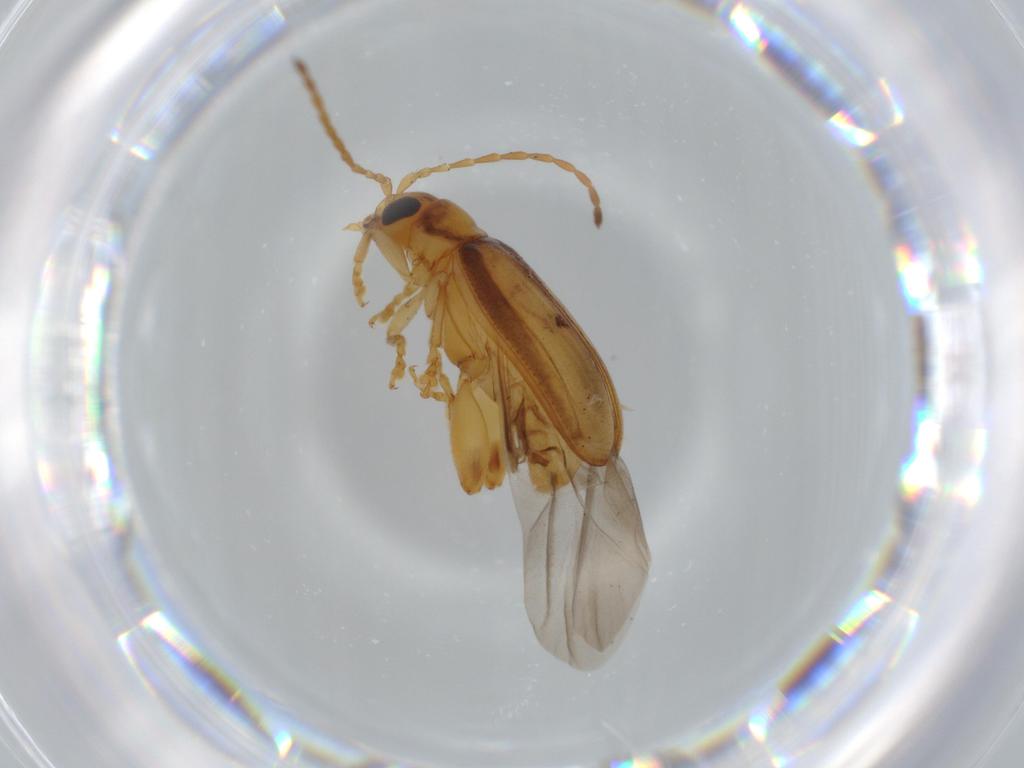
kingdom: Animalia
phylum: Arthropoda
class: Insecta
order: Coleoptera
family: Chrysomelidae
